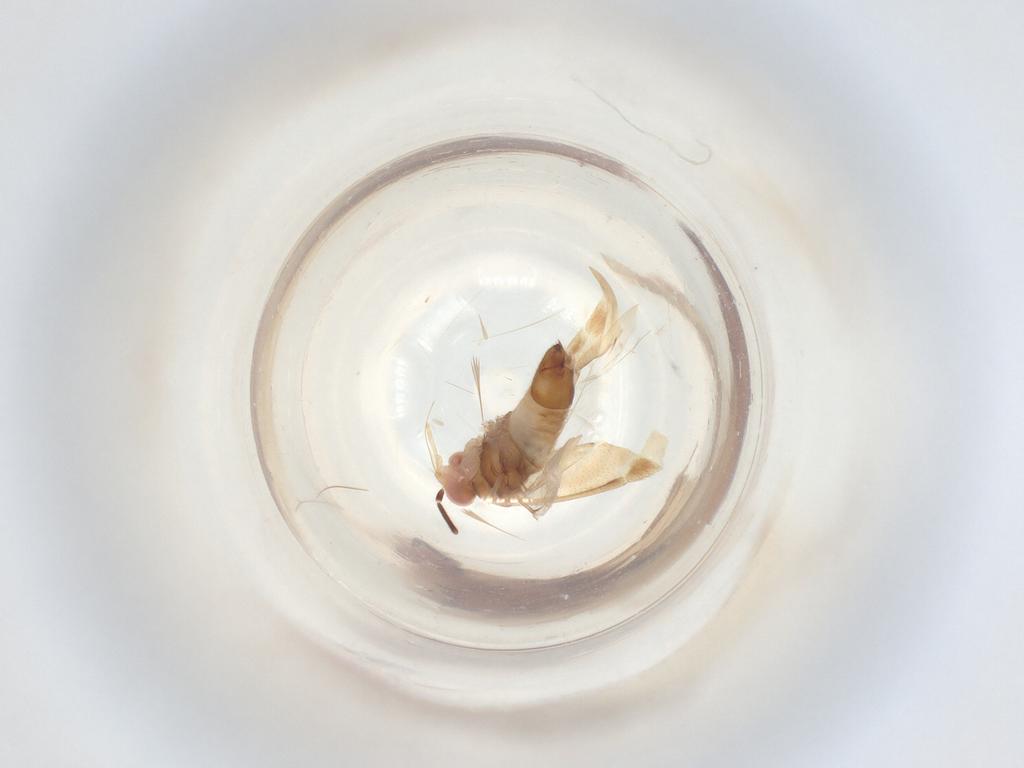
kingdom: Animalia
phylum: Arthropoda
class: Insecta
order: Diptera
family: Chironomidae
